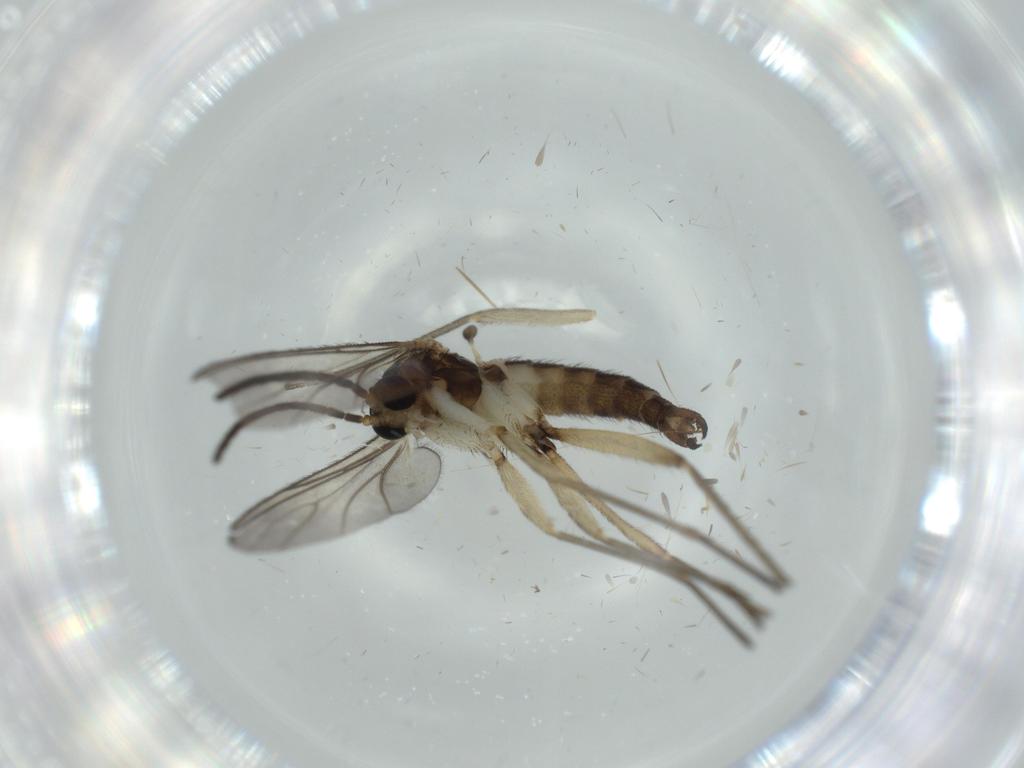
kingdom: Animalia
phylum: Arthropoda
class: Insecta
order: Diptera
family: Sciaridae
